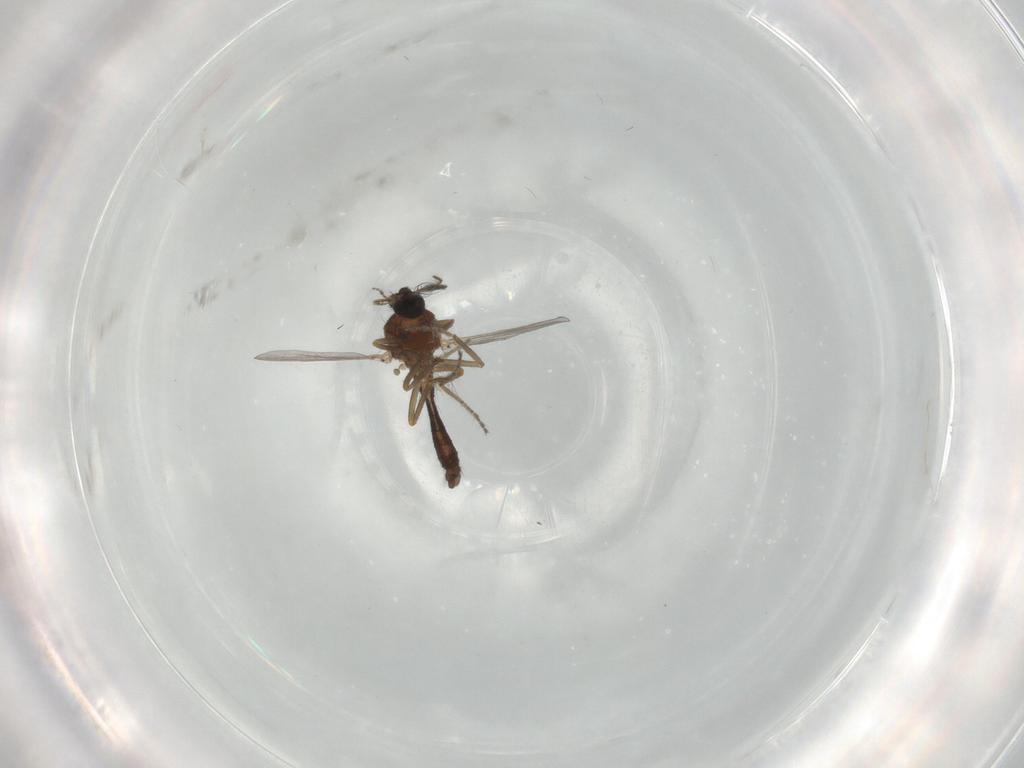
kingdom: Animalia
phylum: Arthropoda
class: Insecta
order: Diptera
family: Ceratopogonidae
